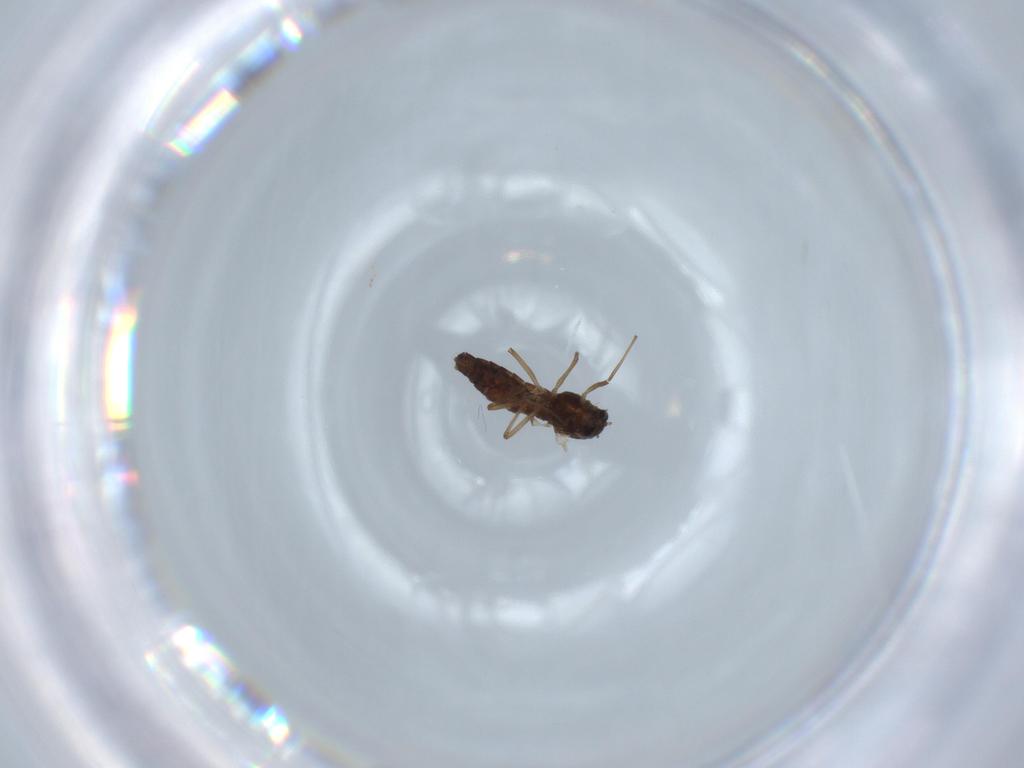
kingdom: Animalia
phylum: Arthropoda
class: Insecta
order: Diptera
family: Chironomidae
